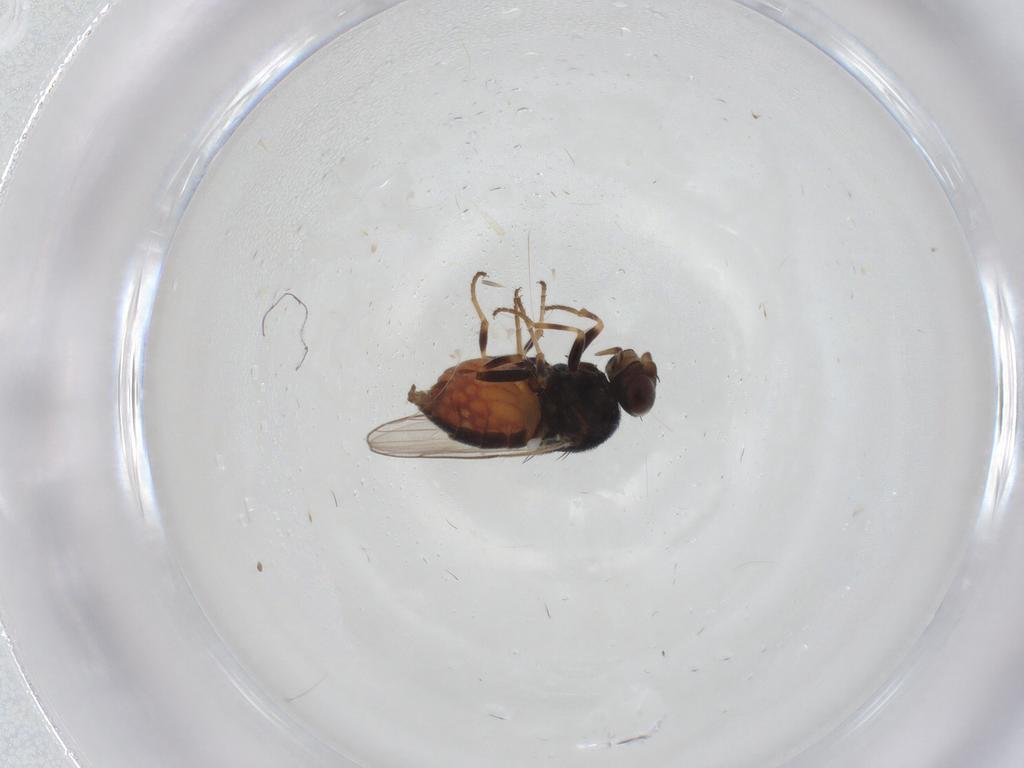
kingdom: Animalia
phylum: Arthropoda
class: Insecta
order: Diptera
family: Chloropidae
